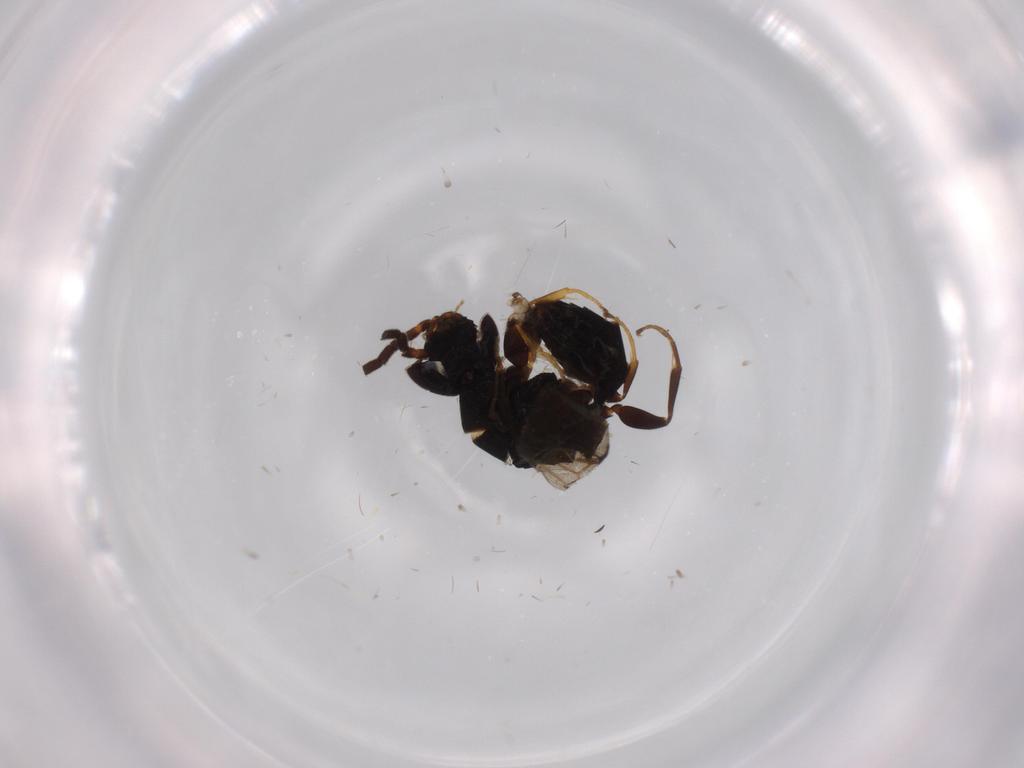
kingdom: Animalia
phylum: Arthropoda
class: Insecta
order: Hymenoptera
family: Bethylidae
